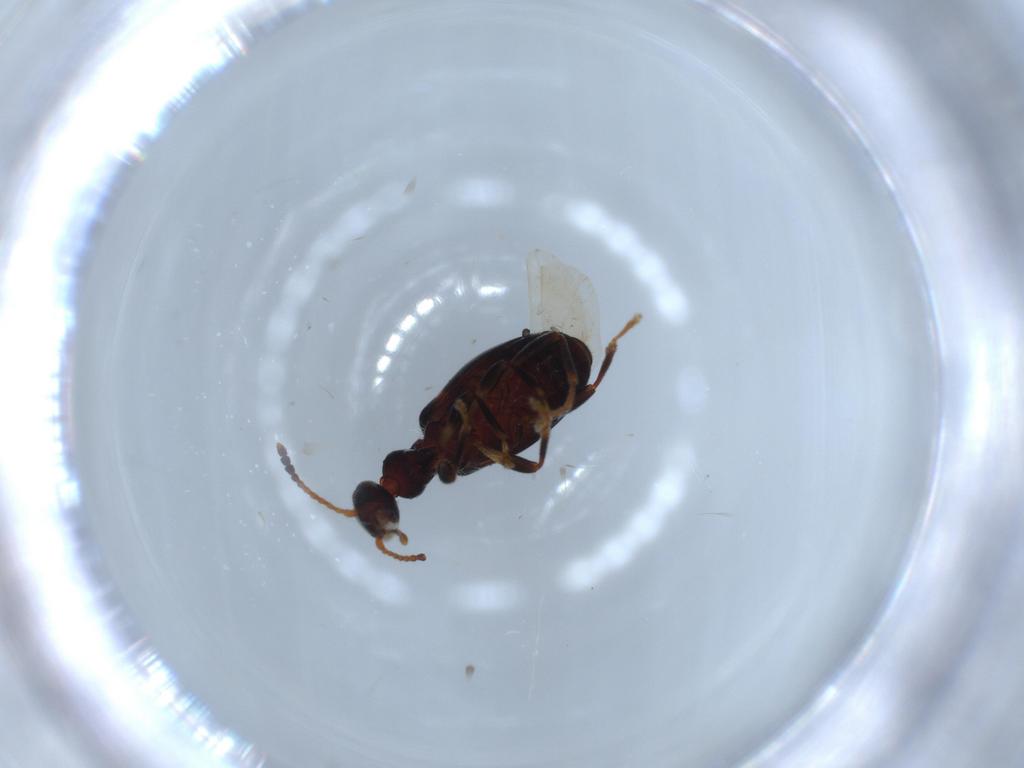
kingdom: Animalia
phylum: Arthropoda
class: Insecta
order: Coleoptera
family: Anthicidae
